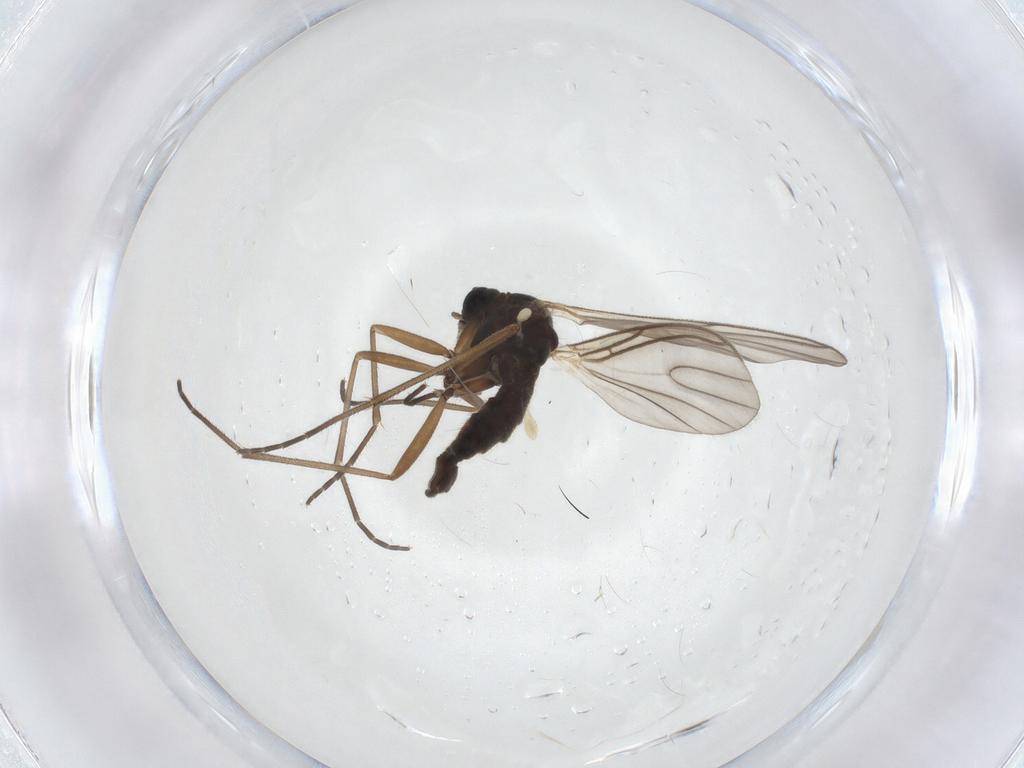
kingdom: Animalia
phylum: Arthropoda
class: Insecta
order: Diptera
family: Sciaridae
